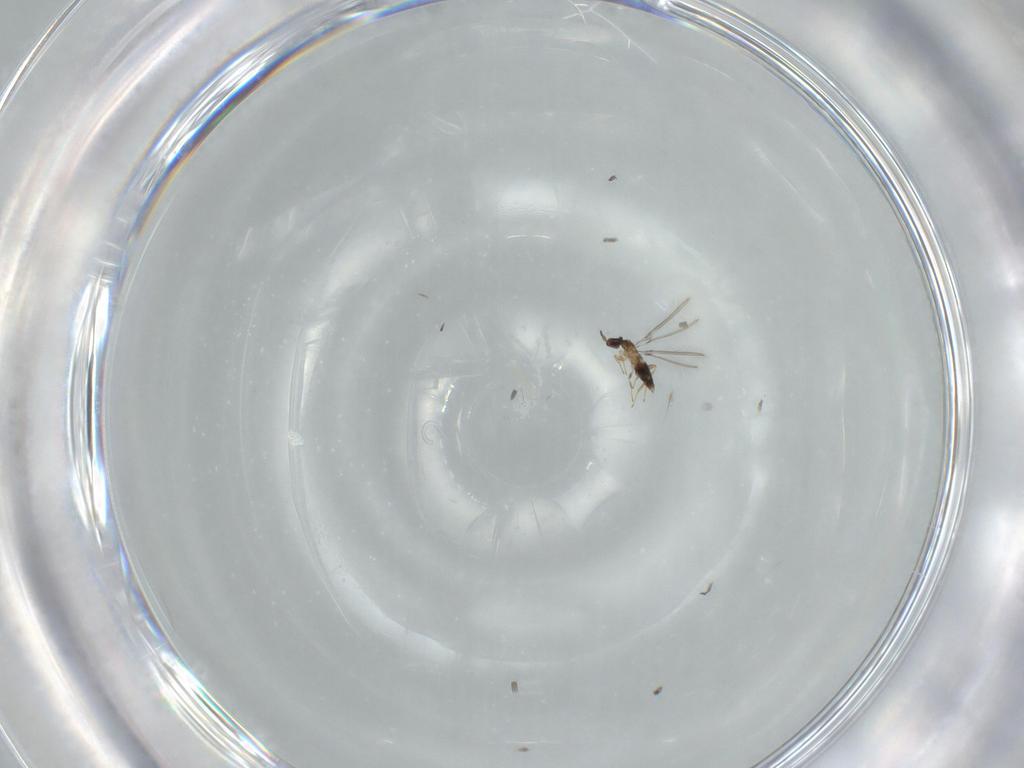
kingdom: Animalia
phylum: Arthropoda
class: Insecta
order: Hymenoptera
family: Mymaridae
